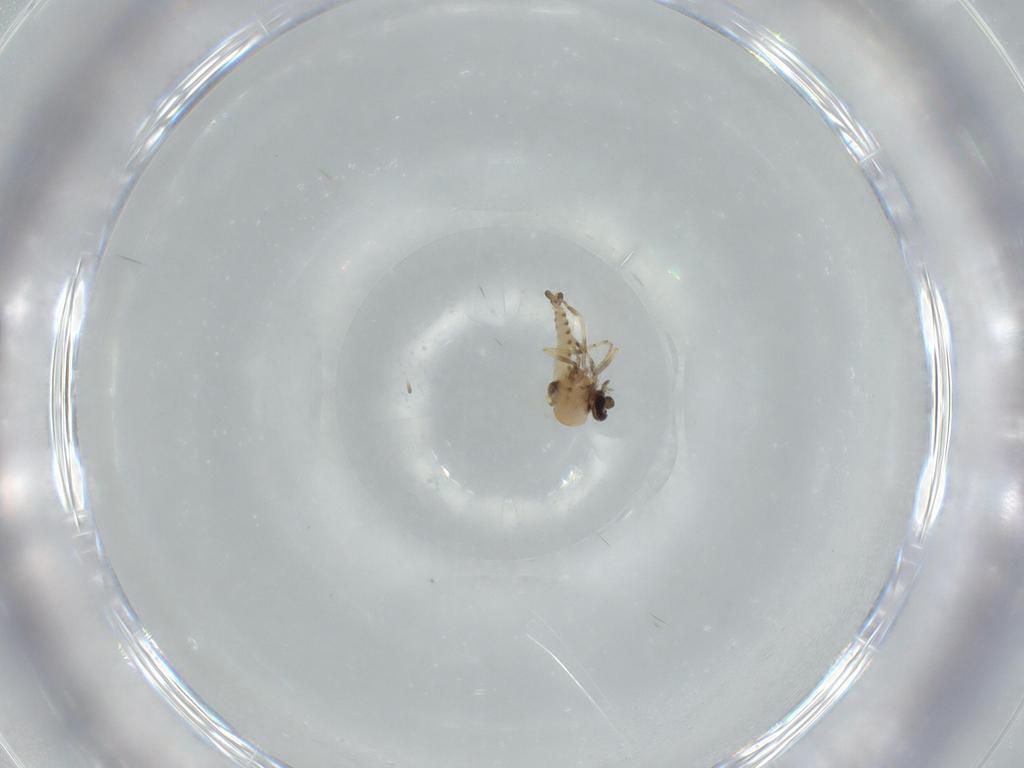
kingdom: Animalia
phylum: Arthropoda
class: Insecta
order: Diptera
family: Ceratopogonidae
